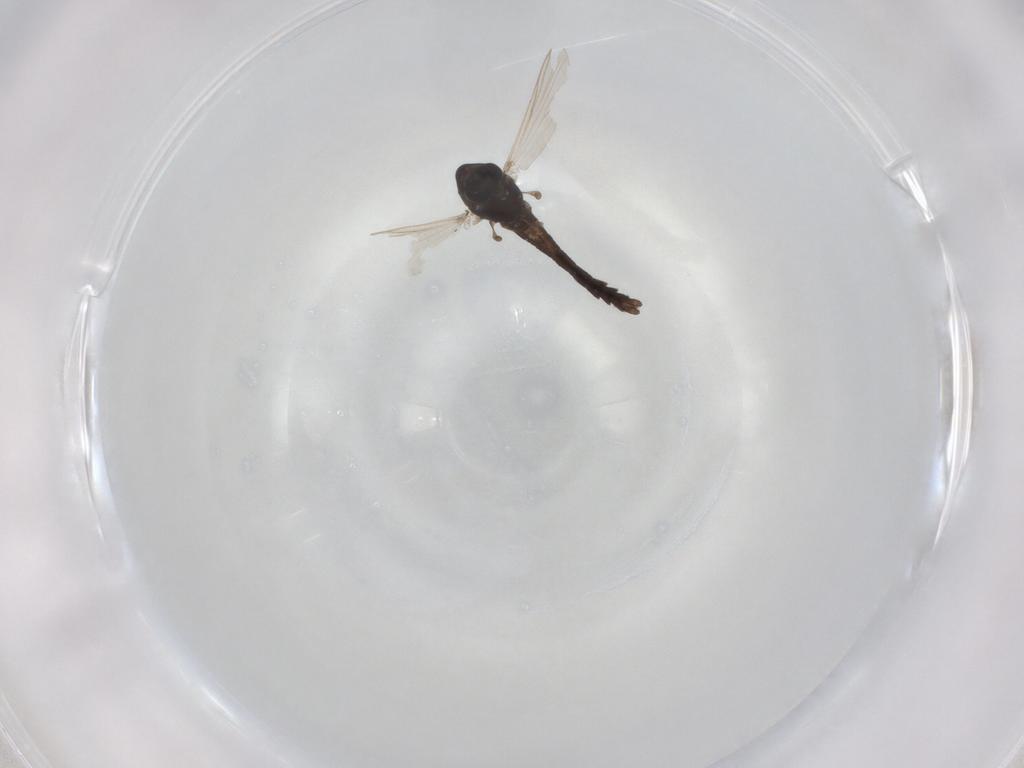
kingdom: Animalia
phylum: Arthropoda
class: Insecta
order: Diptera
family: Chironomidae
